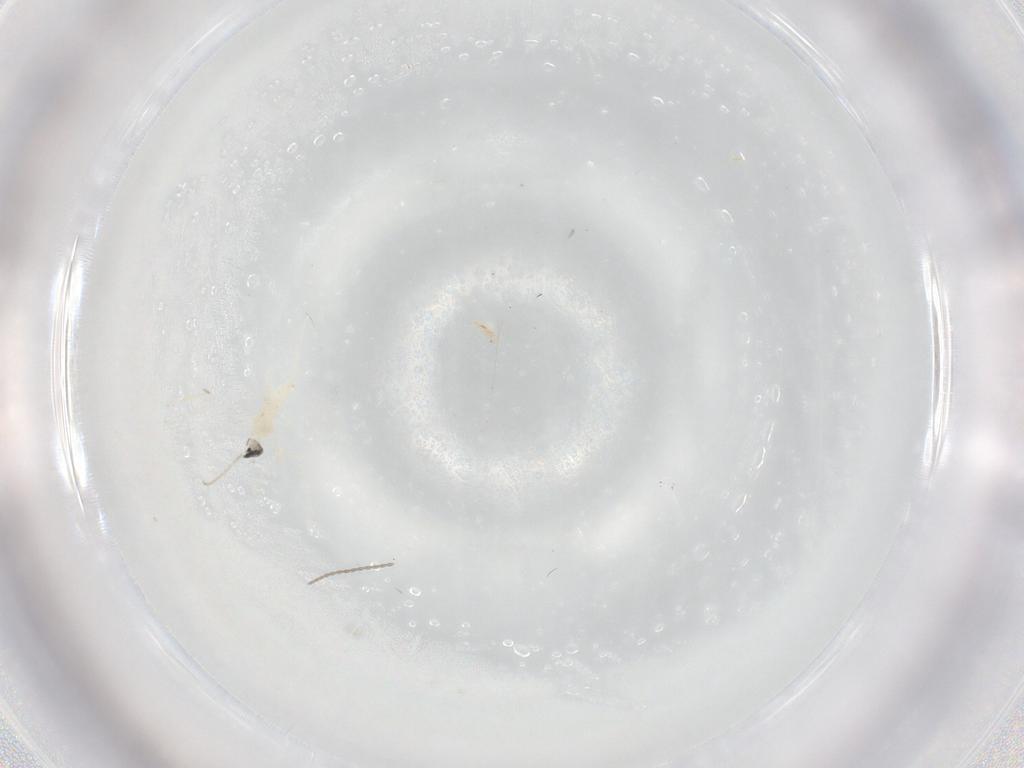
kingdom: Animalia
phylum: Arthropoda
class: Insecta
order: Diptera
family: Cecidomyiidae
